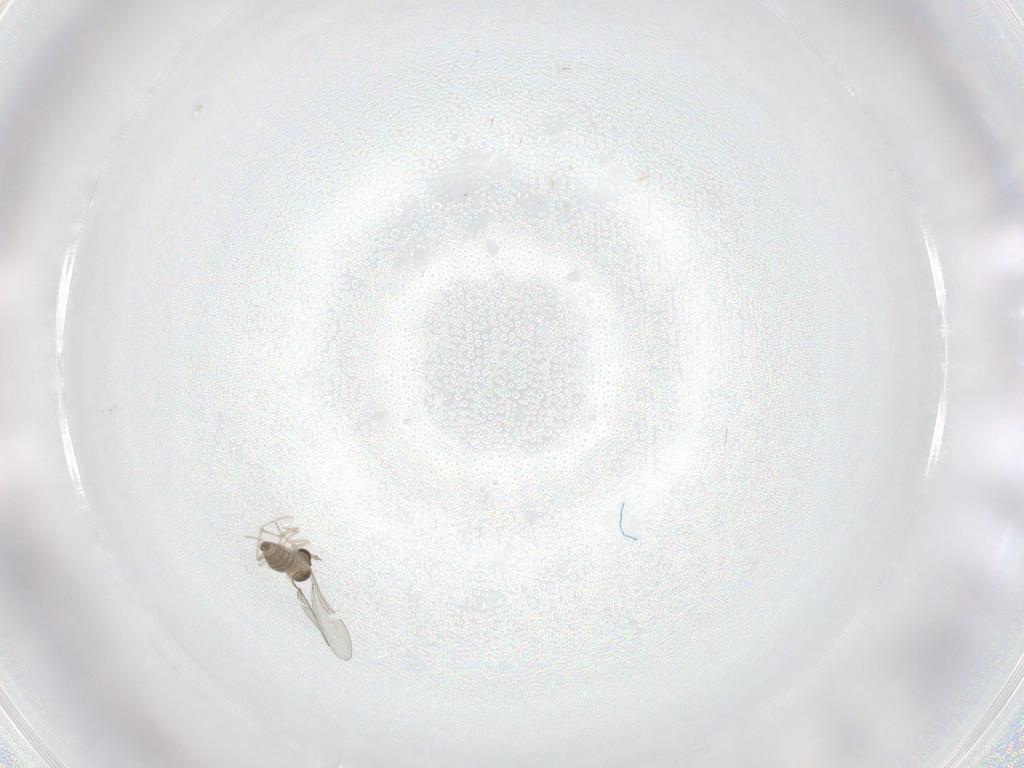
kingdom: Animalia
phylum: Arthropoda
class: Insecta
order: Diptera
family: Cecidomyiidae
